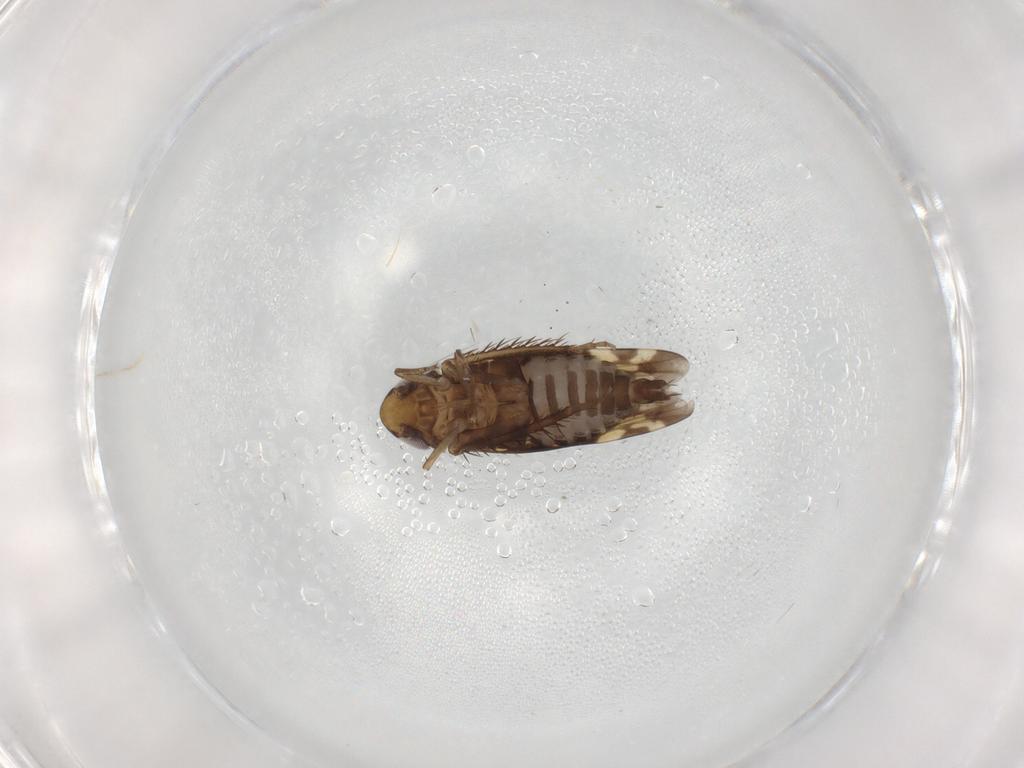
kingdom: Animalia
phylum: Arthropoda
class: Insecta
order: Hemiptera
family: Cicadellidae
